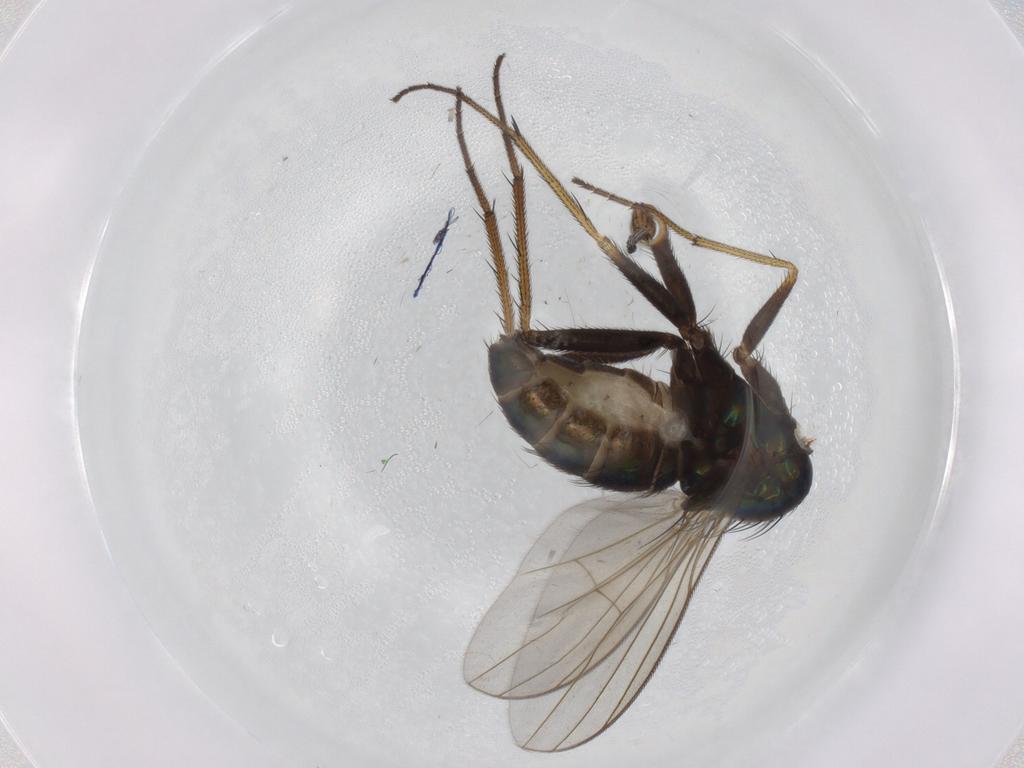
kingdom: Animalia
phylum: Arthropoda
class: Insecta
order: Diptera
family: Dolichopodidae
